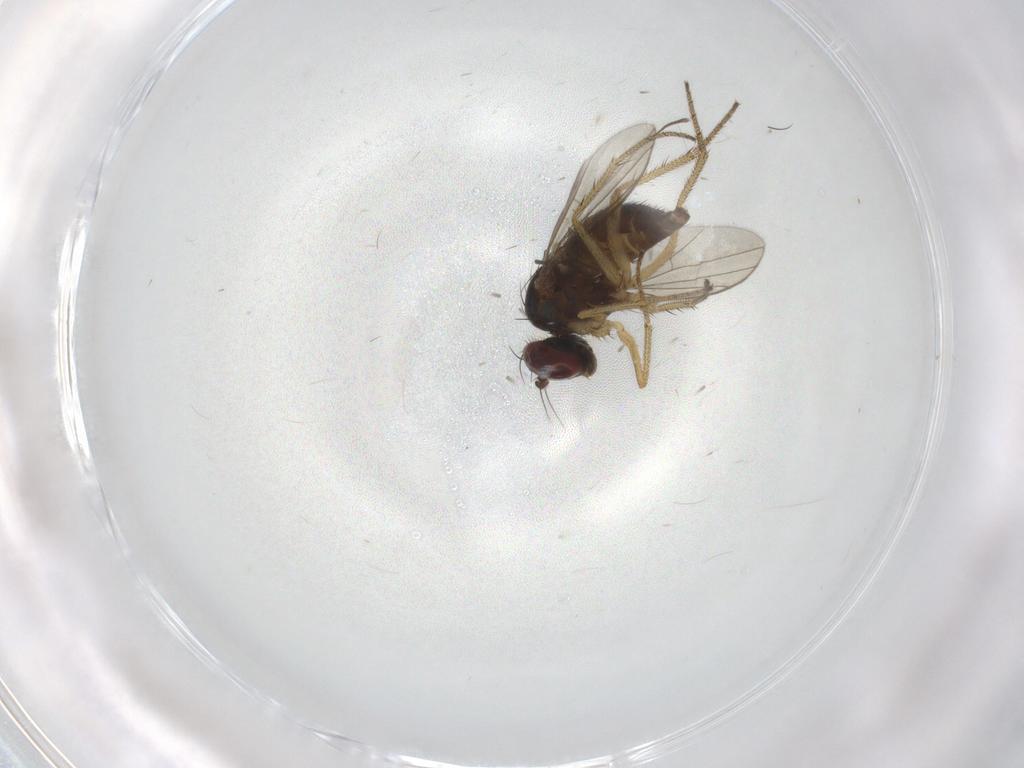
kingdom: Animalia
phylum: Arthropoda
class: Insecta
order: Diptera
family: Sciaridae
